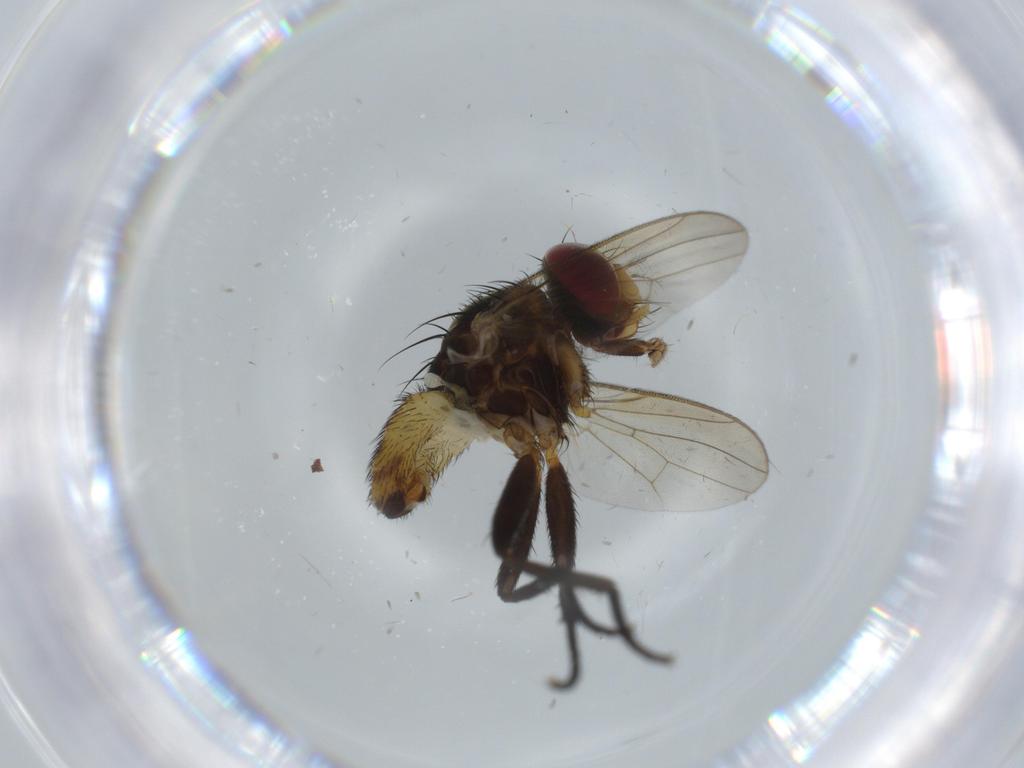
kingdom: Animalia
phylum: Arthropoda
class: Insecta
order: Diptera
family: Anthomyiidae
